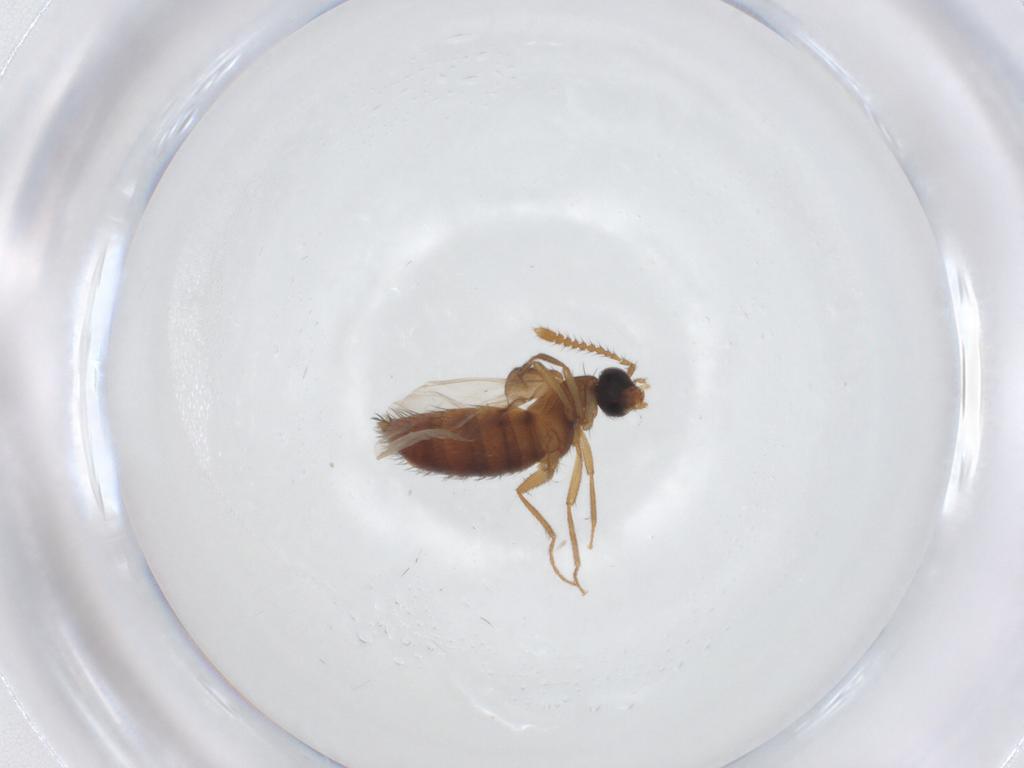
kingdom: Animalia
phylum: Arthropoda
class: Insecta
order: Coleoptera
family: Staphylinidae
